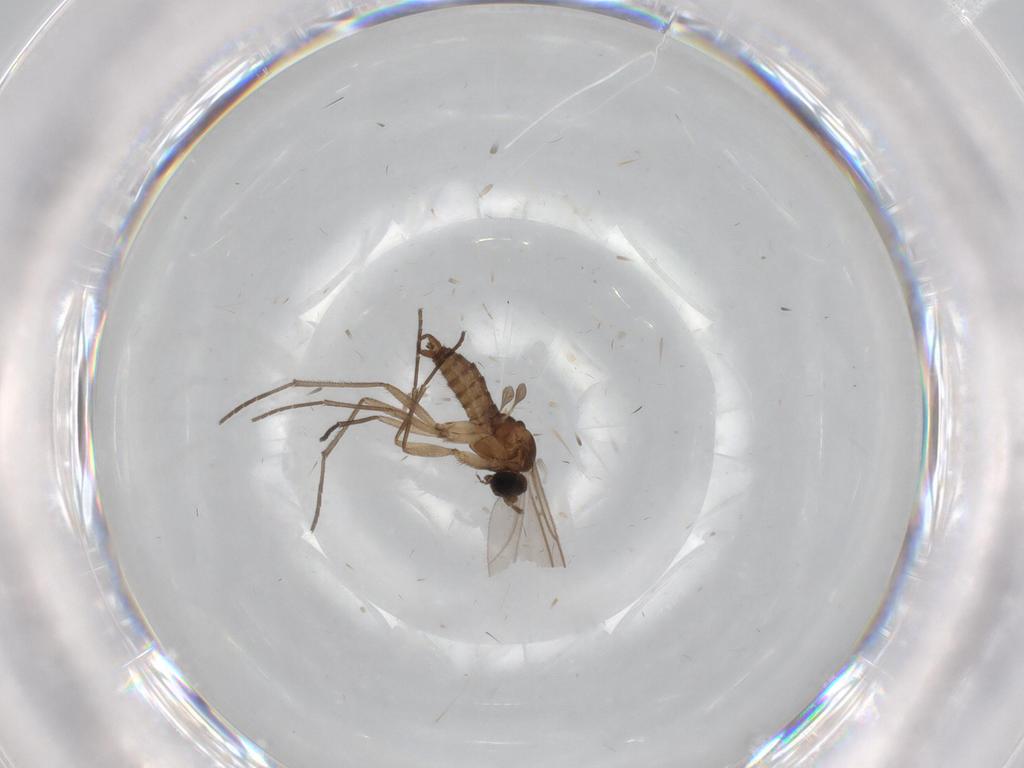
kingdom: Animalia
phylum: Arthropoda
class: Insecta
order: Diptera
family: Sciaridae
